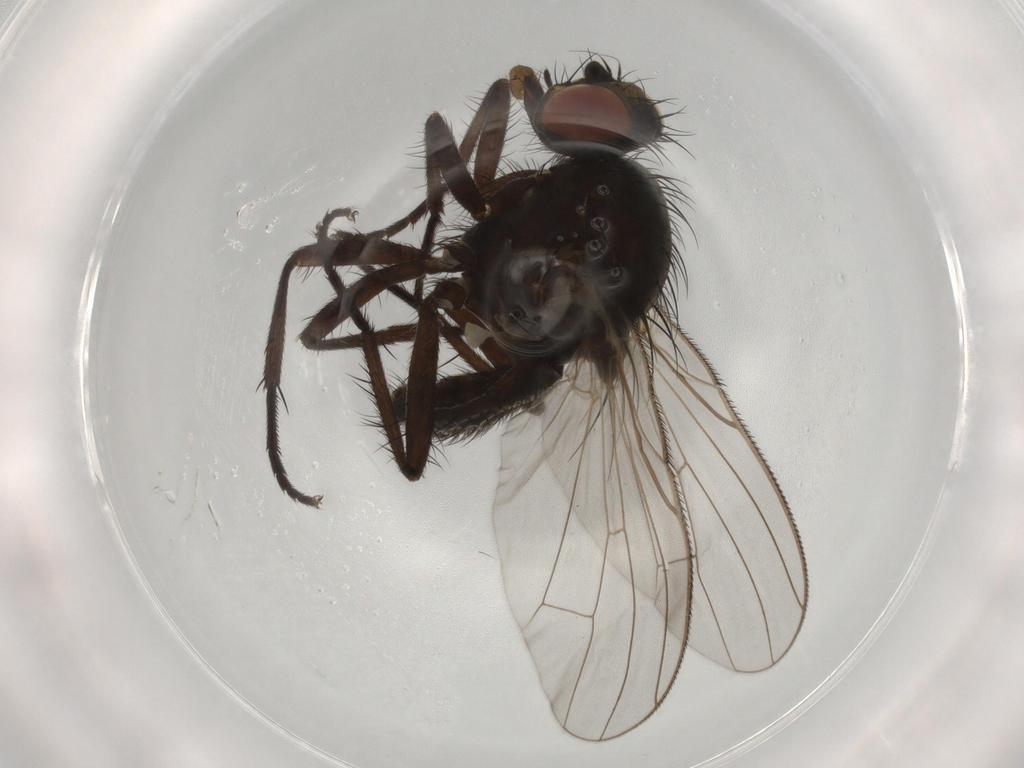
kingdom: Animalia
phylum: Arthropoda
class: Insecta
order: Diptera
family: Anthomyiidae
